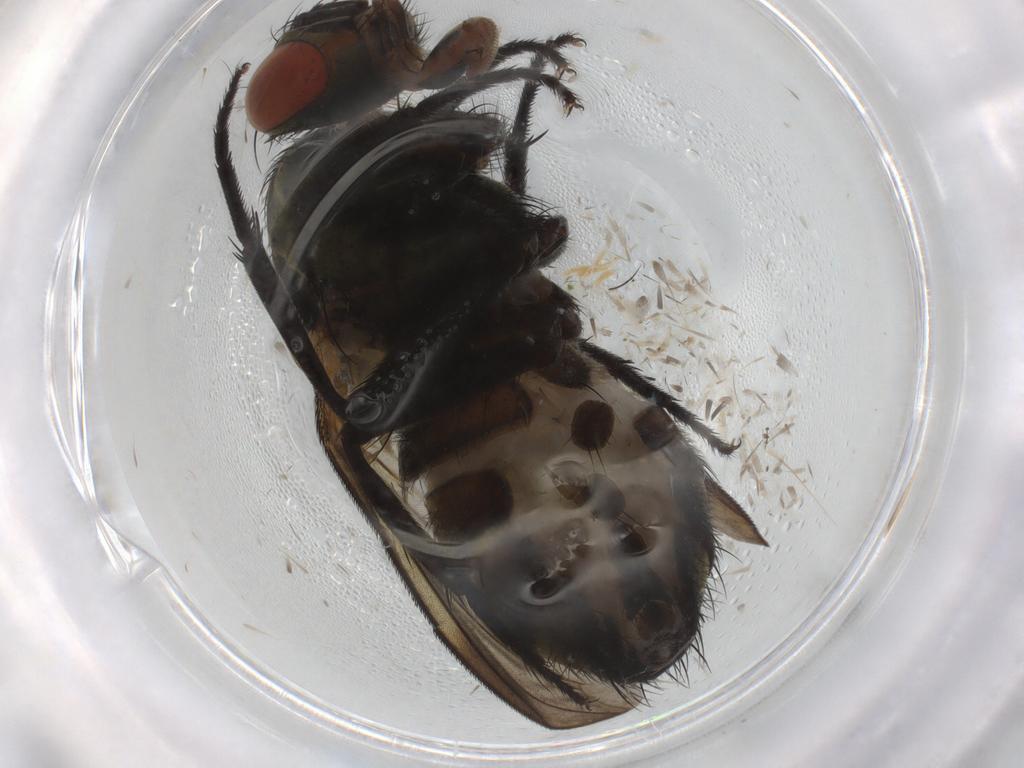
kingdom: Animalia
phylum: Arthropoda
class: Insecta
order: Diptera
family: Sarcophagidae
